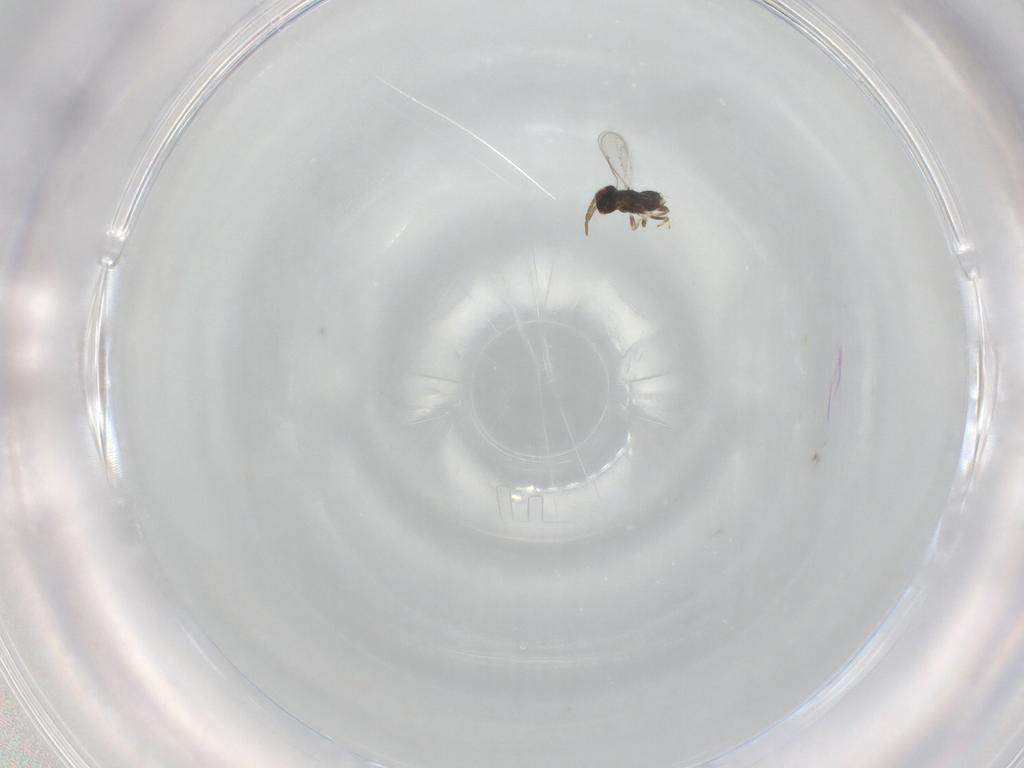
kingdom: Animalia
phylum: Arthropoda
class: Insecta
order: Hymenoptera
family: Aphelinidae
